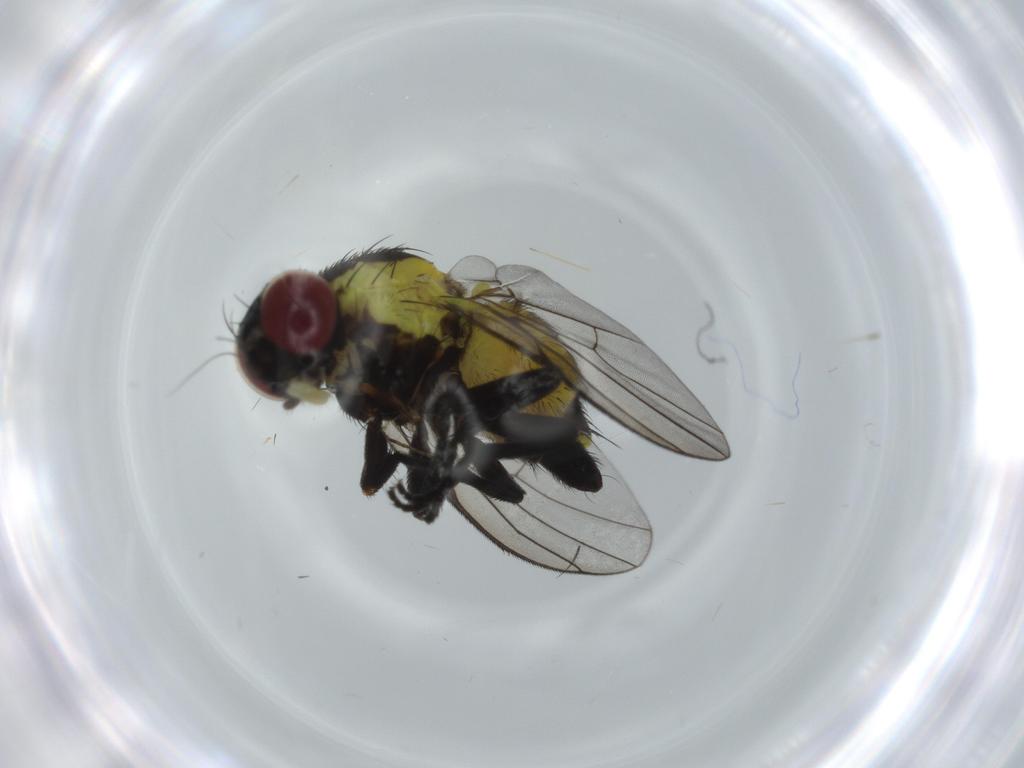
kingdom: Animalia
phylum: Arthropoda
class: Insecta
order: Diptera
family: Agromyzidae
